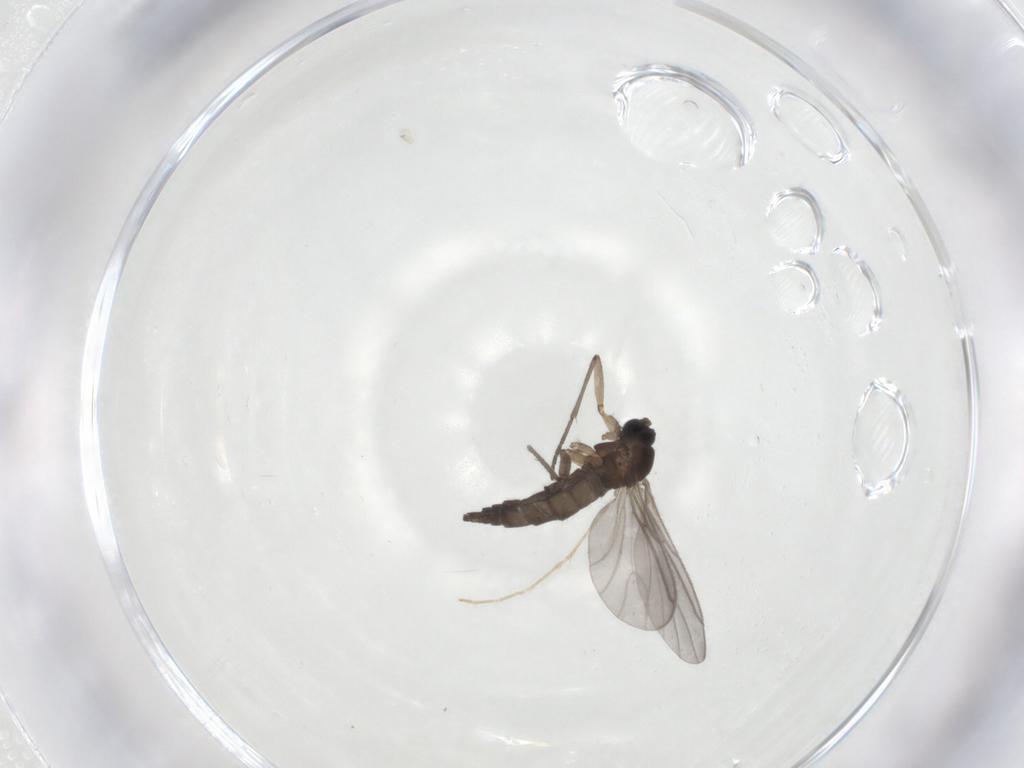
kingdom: Animalia
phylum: Arthropoda
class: Insecta
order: Diptera
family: Sciaridae
